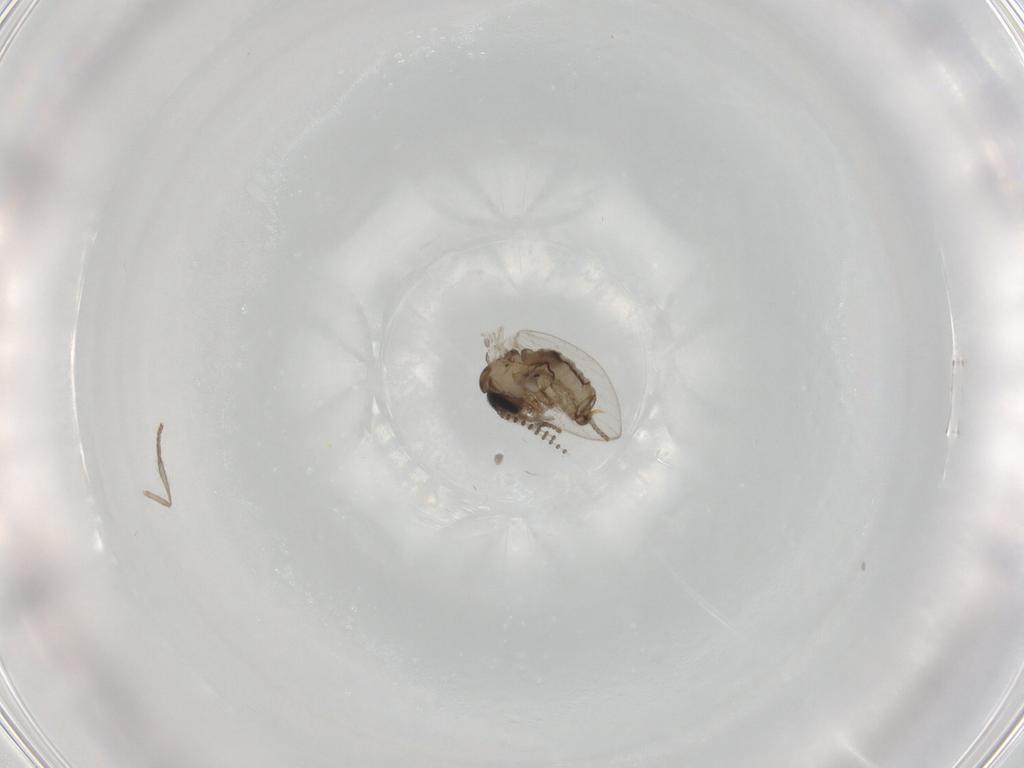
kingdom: Animalia
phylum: Arthropoda
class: Insecta
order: Diptera
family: Psychodidae
